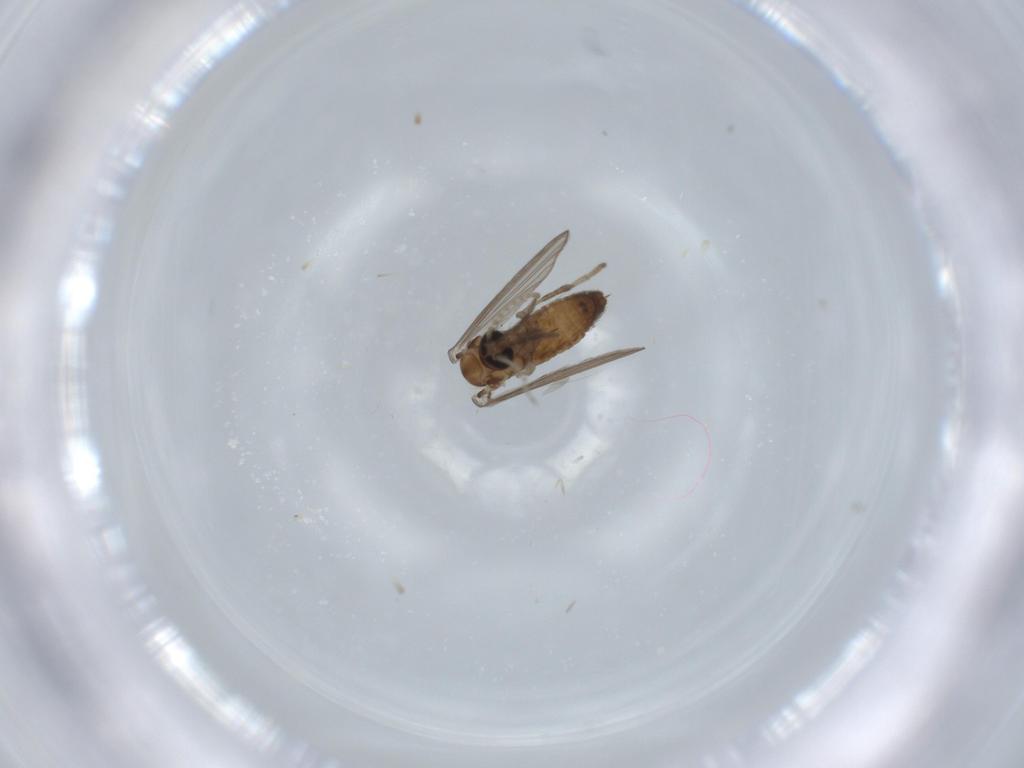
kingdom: Animalia
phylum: Arthropoda
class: Insecta
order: Diptera
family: Psychodidae
